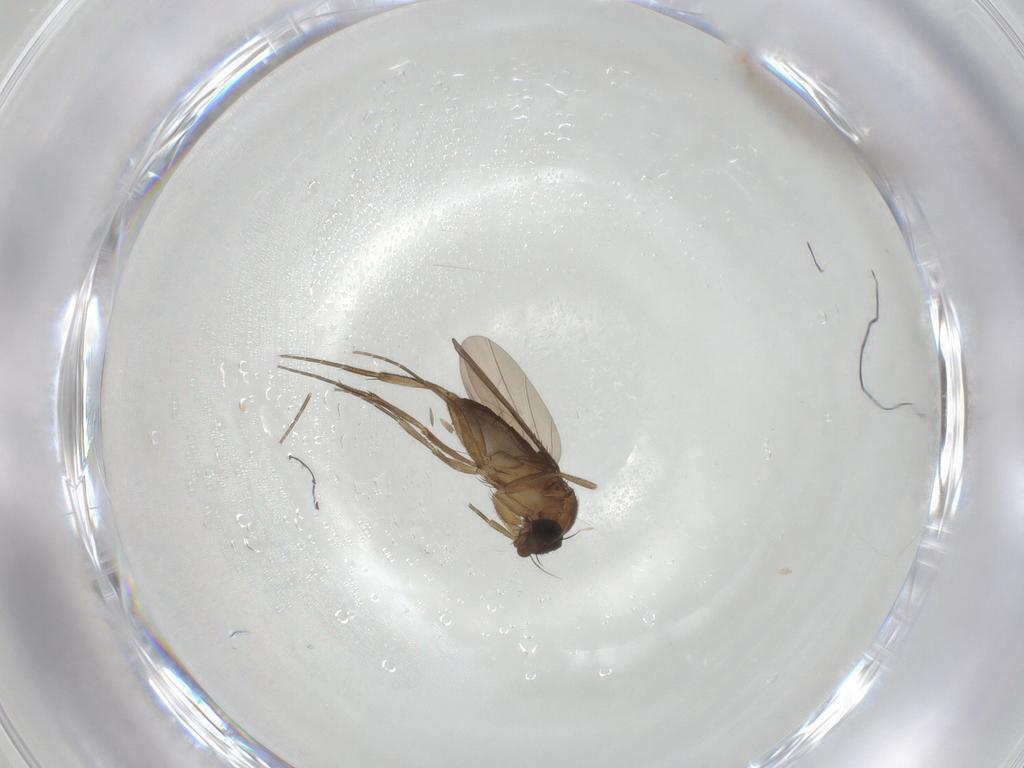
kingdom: Animalia
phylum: Arthropoda
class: Insecta
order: Diptera
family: Phoridae
